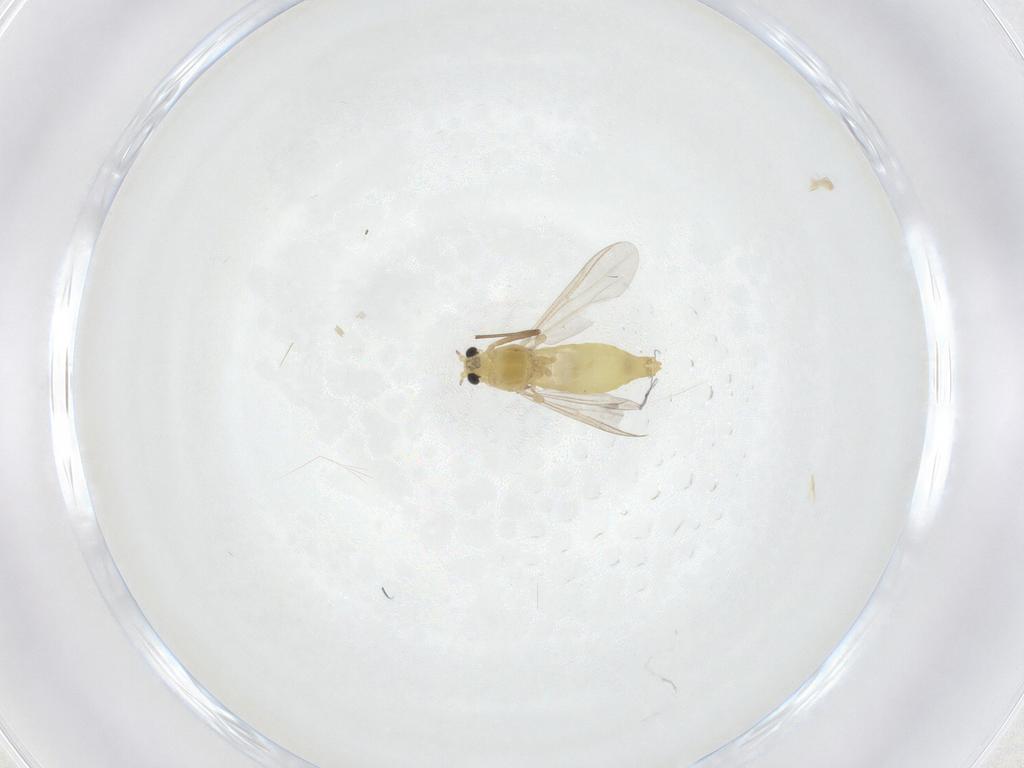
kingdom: Animalia
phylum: Arthropoda
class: Insecta
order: Diptera
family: Chironomidae
